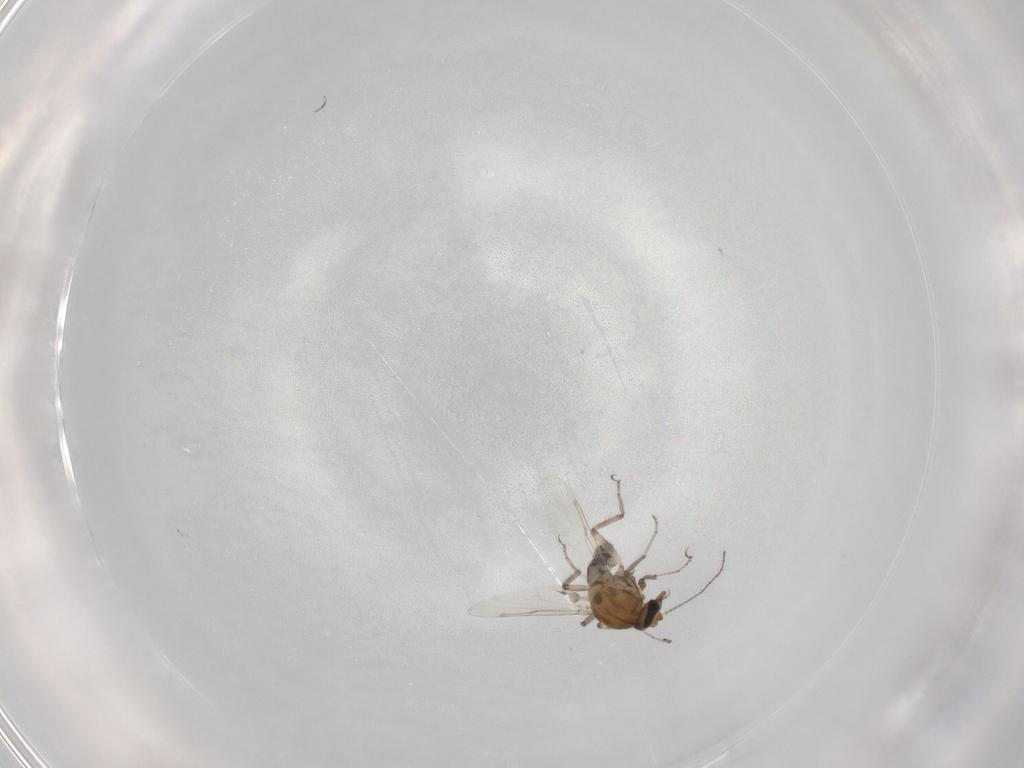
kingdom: Animalia
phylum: Arthropoda
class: Insecta
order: Diptera
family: Ceratopogonidae
